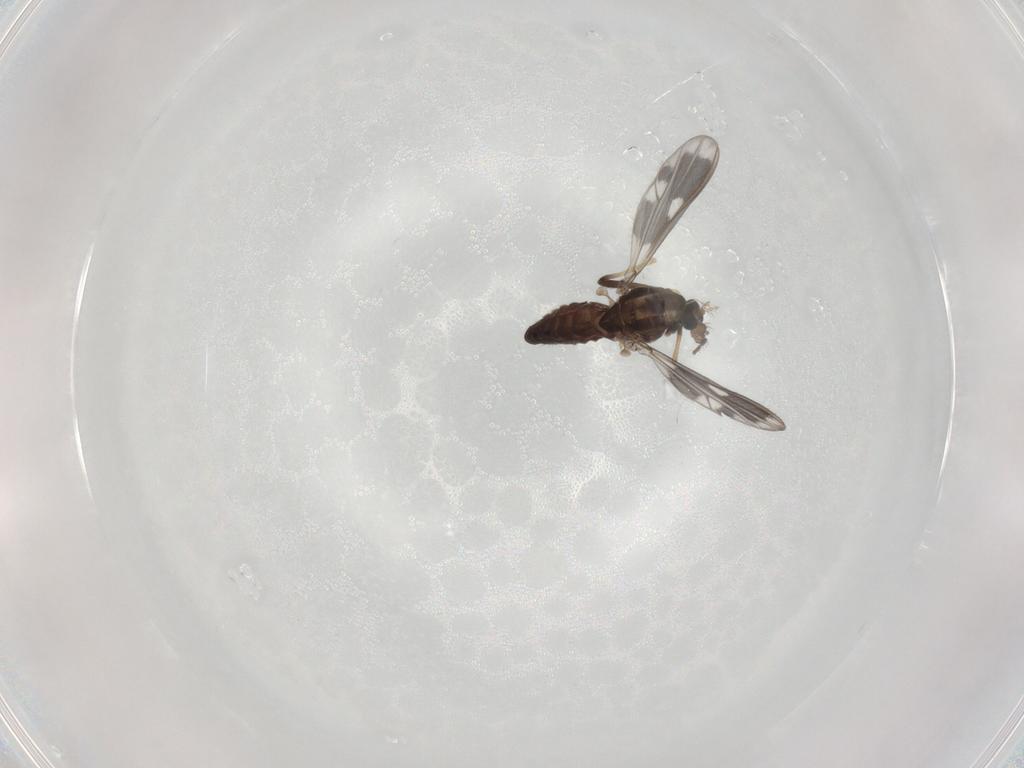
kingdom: Animalia
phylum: Arthropoda
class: Insecta
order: Diptera
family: Chironomidae
